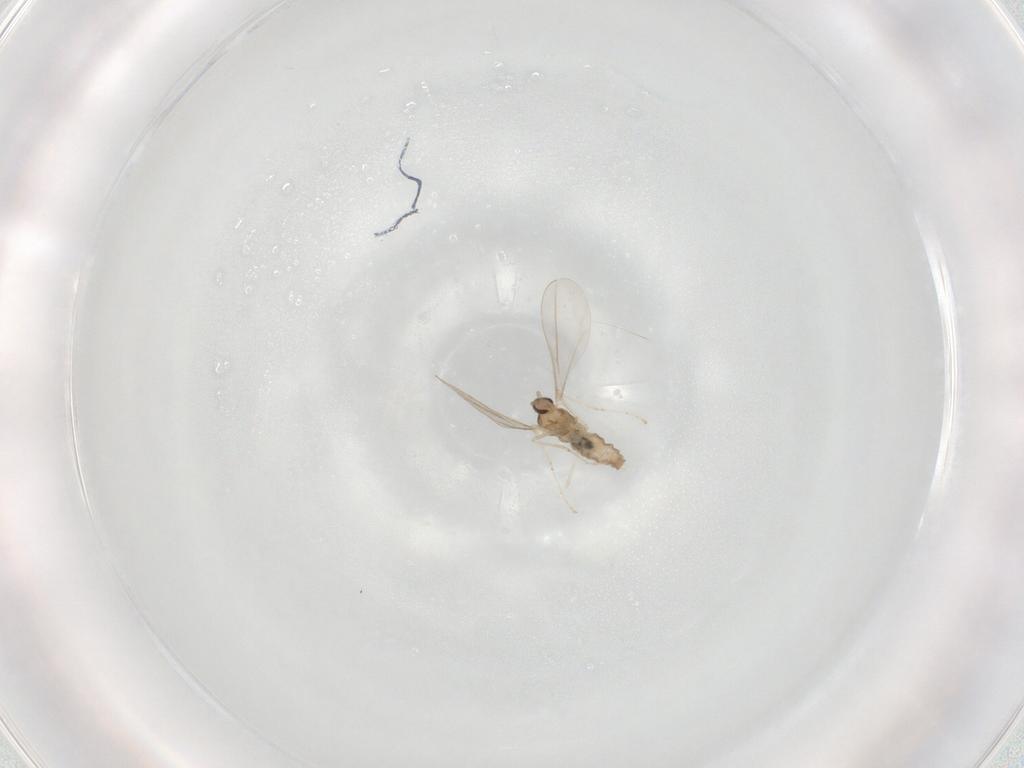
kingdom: Animalia
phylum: Arthropoda
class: Insecta
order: Diptera
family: Cecidomyiidae
